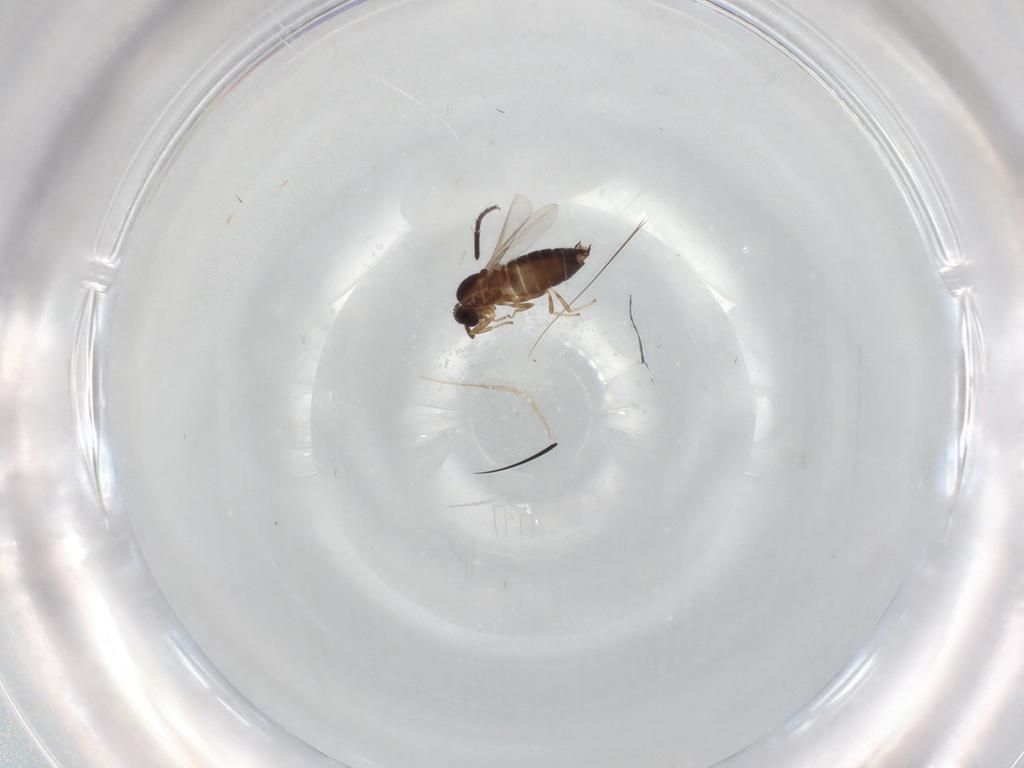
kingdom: Animalia
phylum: Arthropoda
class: Insecta
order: Diptera
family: Scatopsidae
